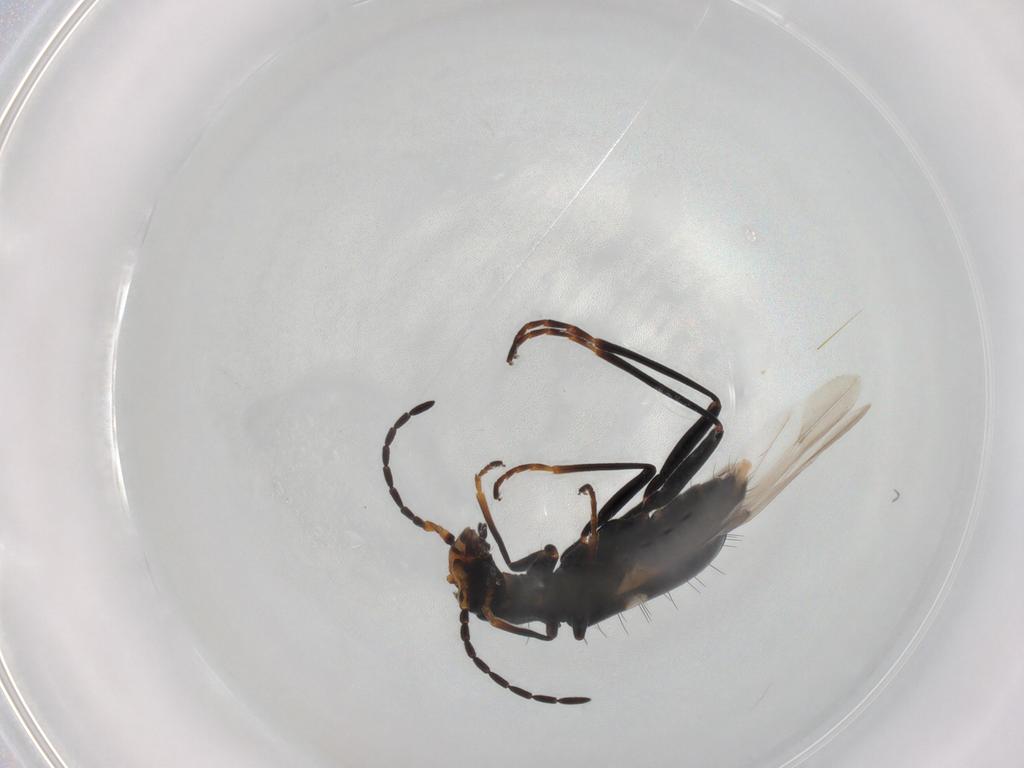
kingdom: Animalia
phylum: Arthropoda
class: Insecta
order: Coleoptera
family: Melyridae
